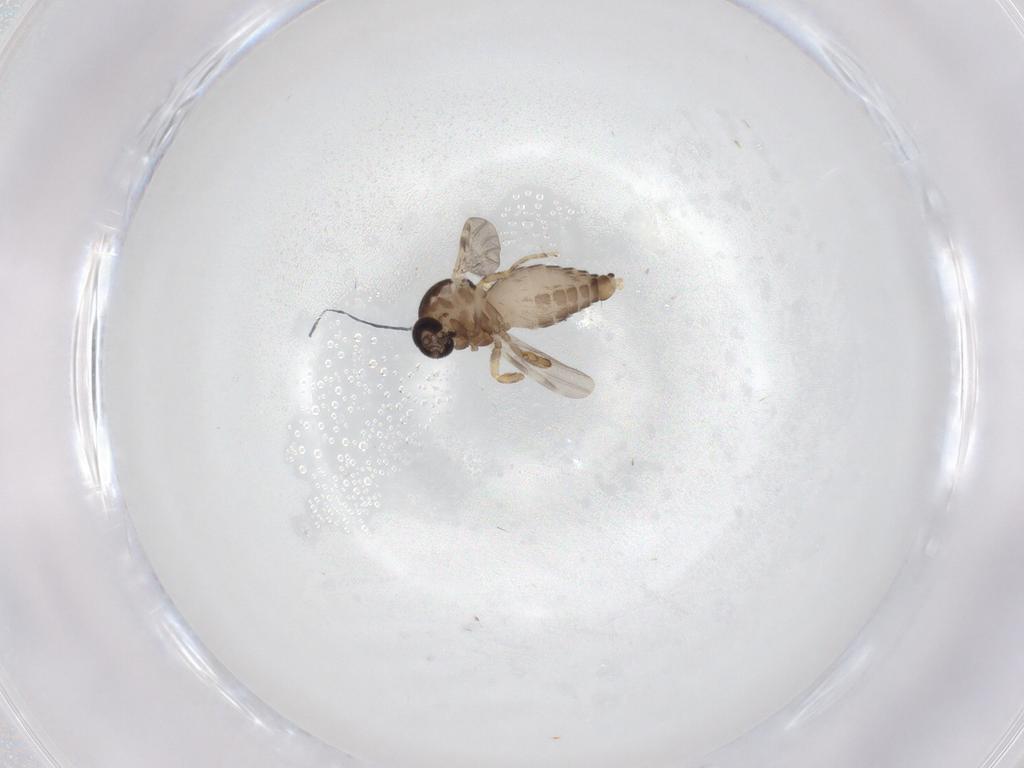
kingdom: Animalia
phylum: Arthropoda
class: Insecta
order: Diptera
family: Ceratopogonidae
